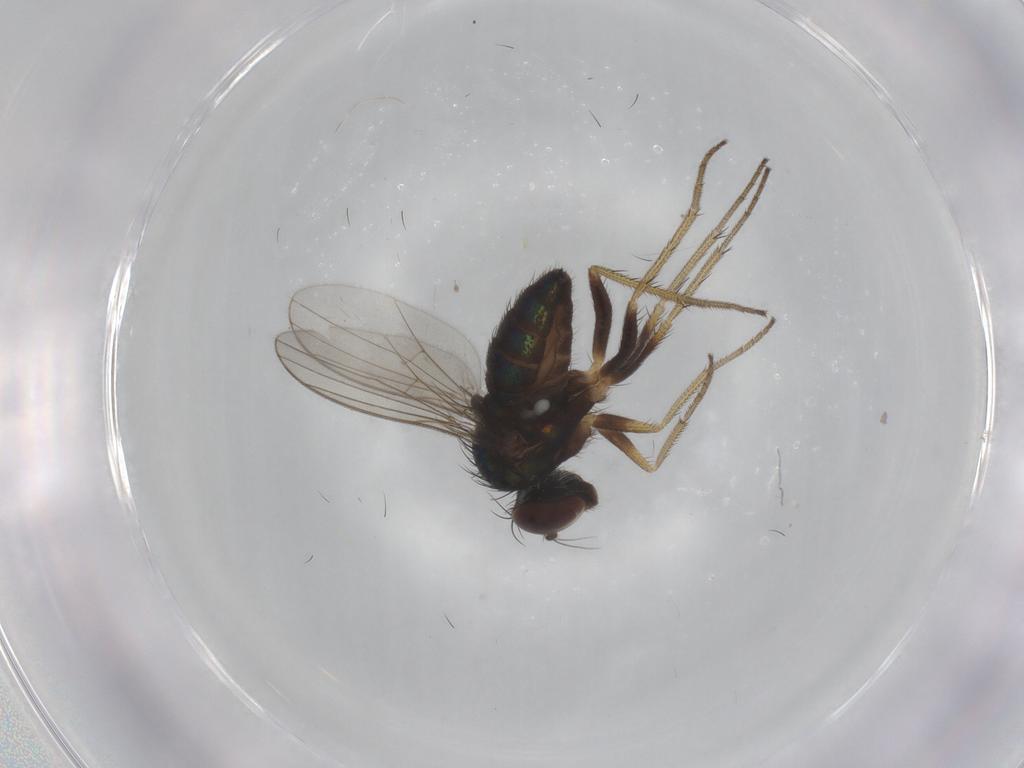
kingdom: Animalia
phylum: Arthropoda
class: Insecta
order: Diptera
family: Dolichopodidae
